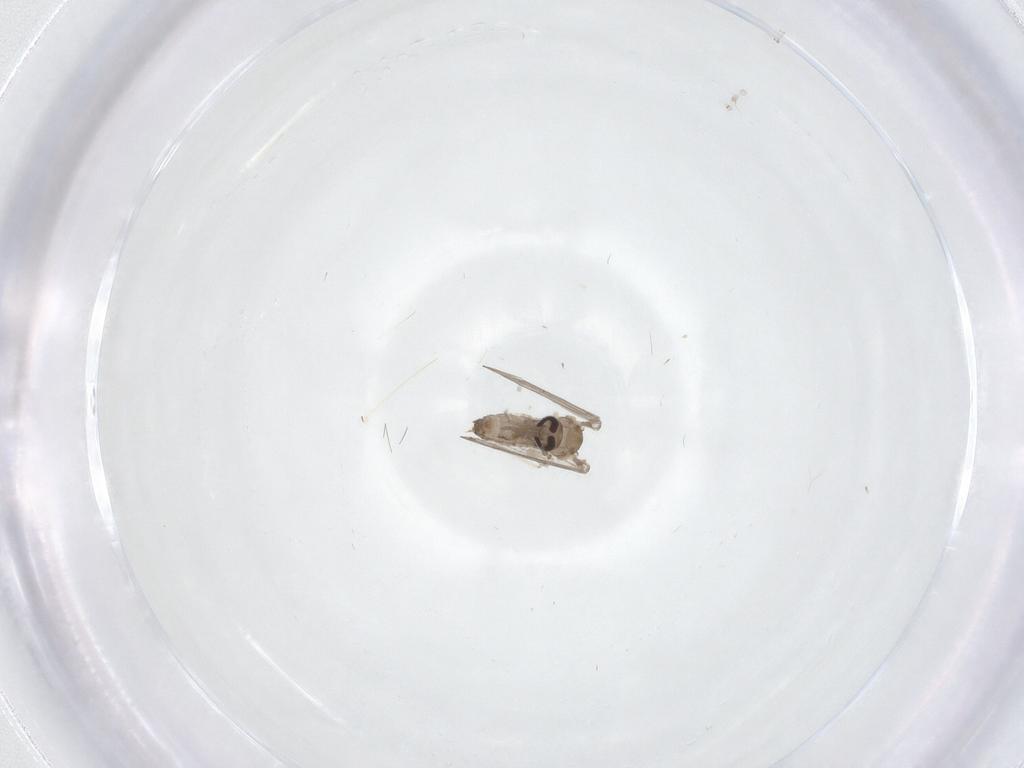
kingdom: Animalia
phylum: Arthropoda
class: Insecta
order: Diptera
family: Psychodidae
